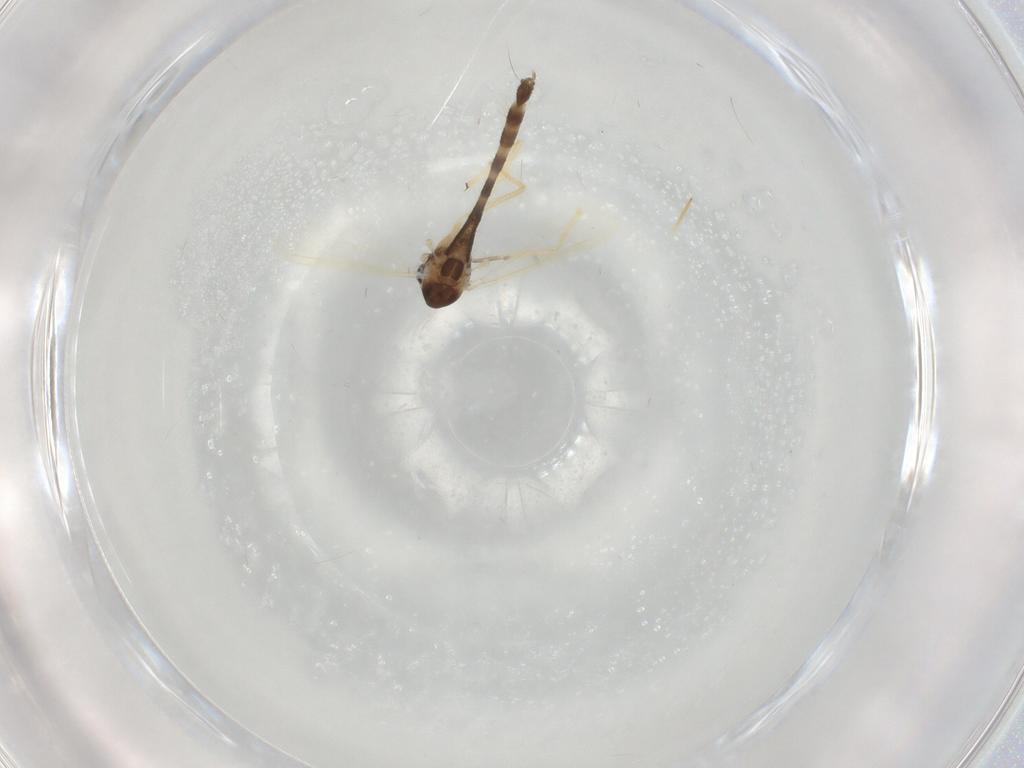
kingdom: Animalia
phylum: Arthropoda
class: Insecta
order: Diptera
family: Chironomidae
